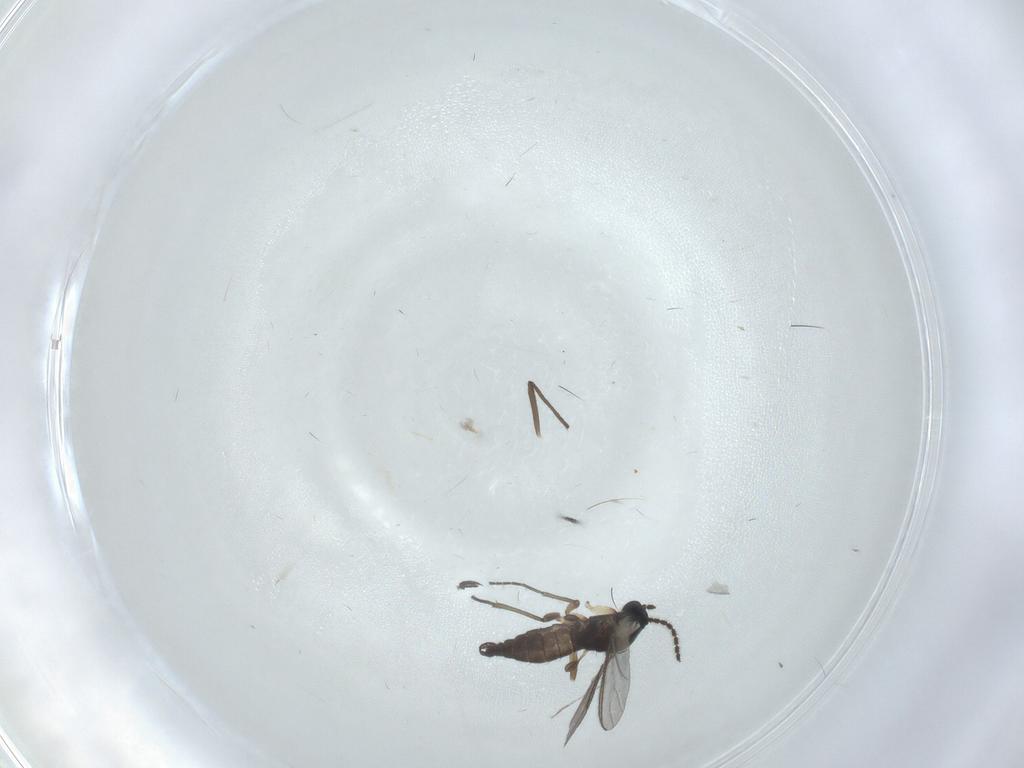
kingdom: Animalia
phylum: Arthropoda
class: Insecta
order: Diptera
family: Sciaridae
